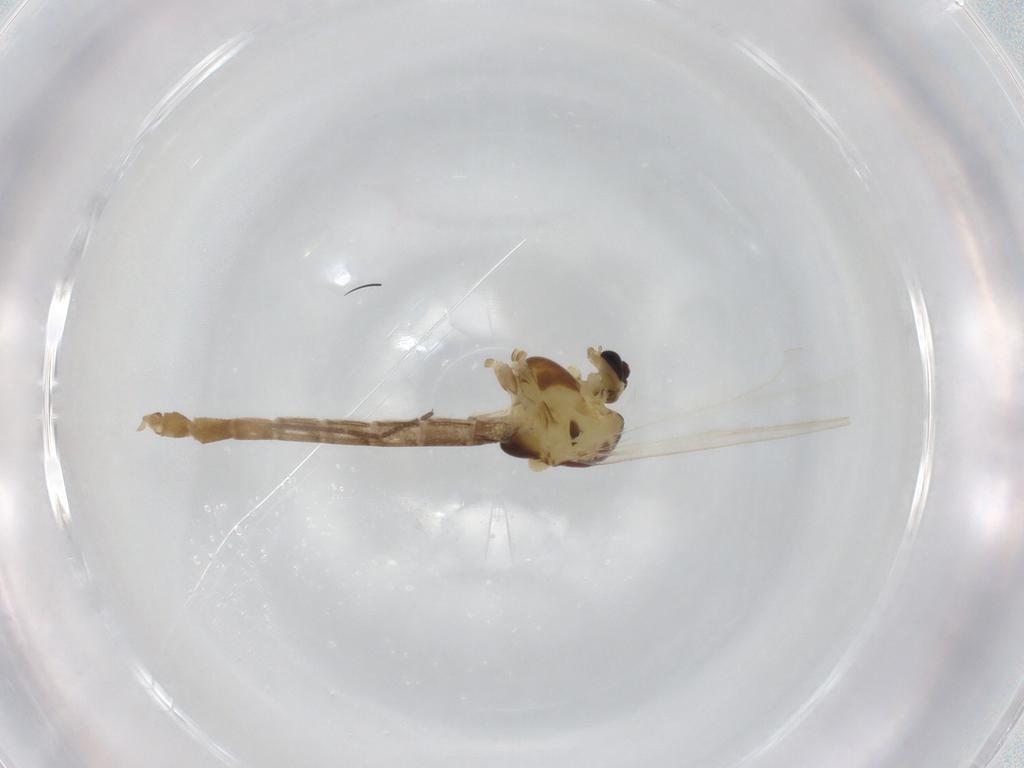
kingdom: Animalia
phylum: Arthropoda
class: Insecta
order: Diptera
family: Chironomidae
